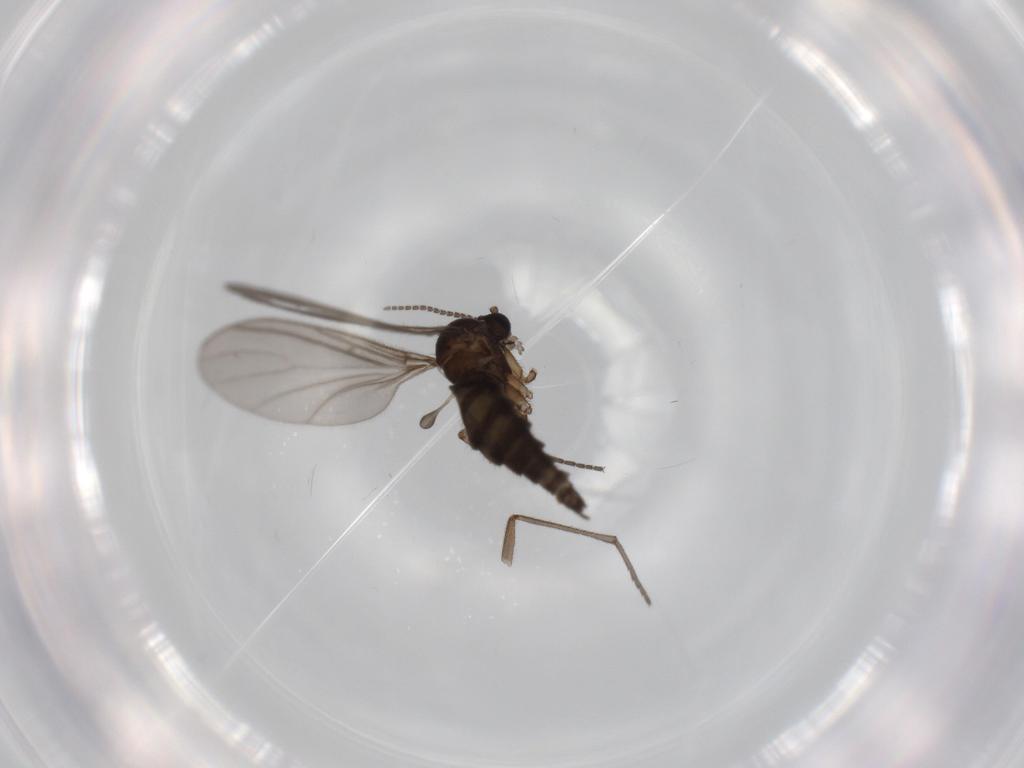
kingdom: Animalia
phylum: Arthropoda
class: Insecta
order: Diptera
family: Sciaridae
